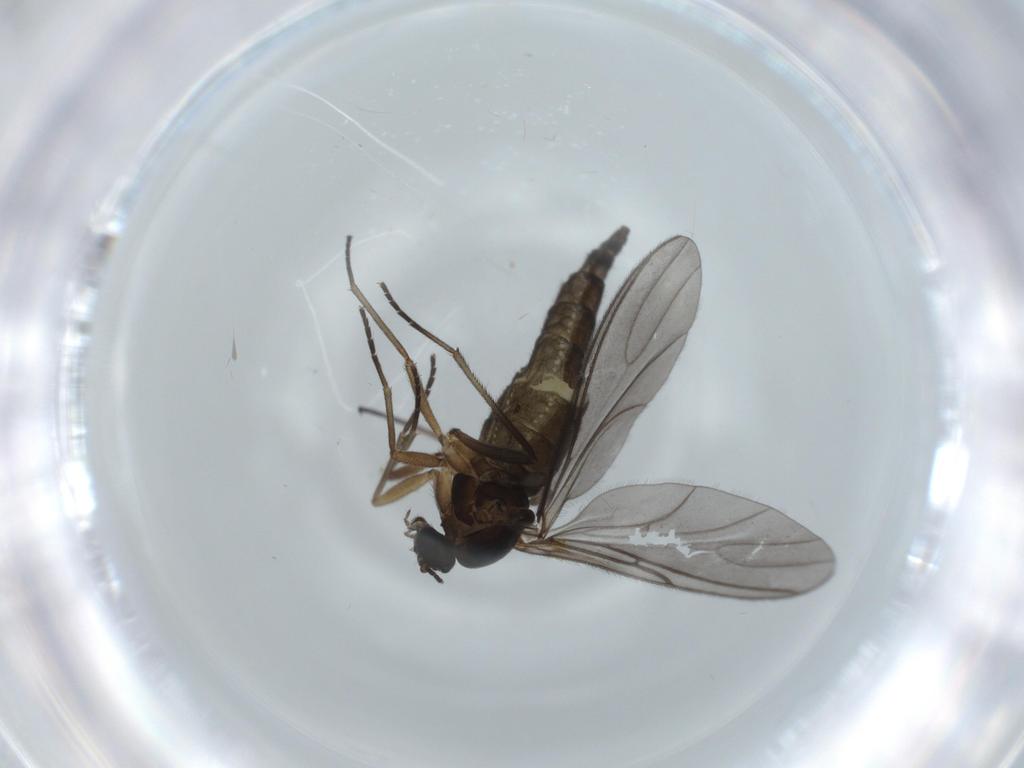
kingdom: Animalia
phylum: Arthropoda
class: Insecta
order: Diptera
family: Sciaridae
